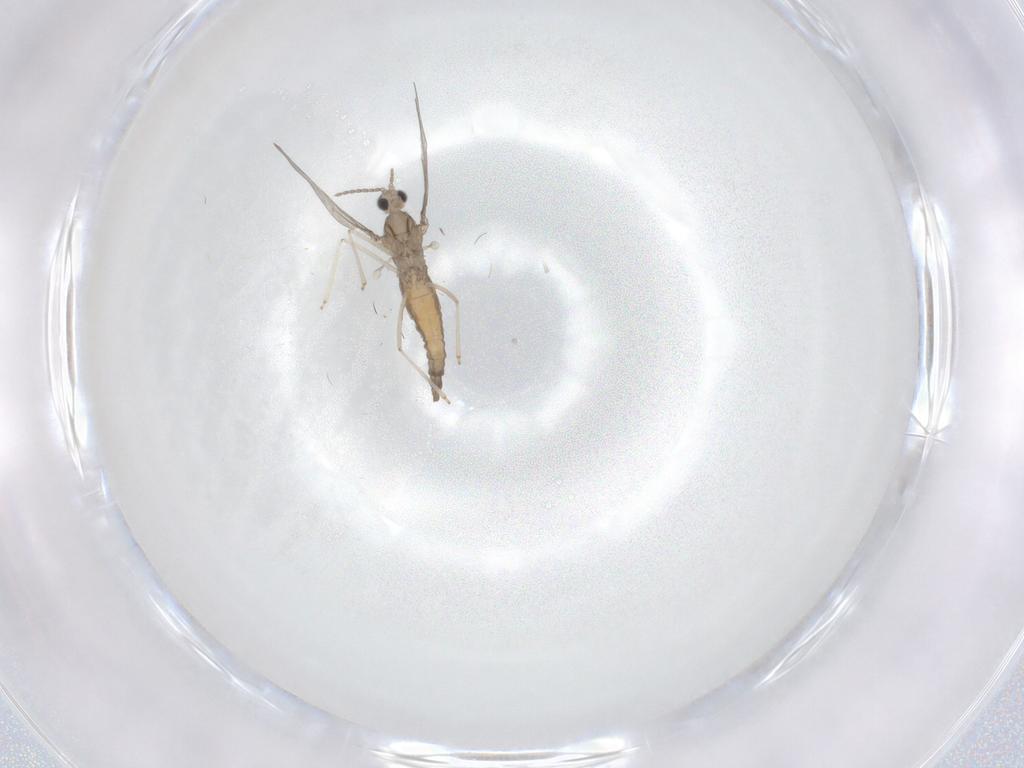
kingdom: Animalia
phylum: Arthropoda
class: Insecta
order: Diptera
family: Cecidomyiidae
